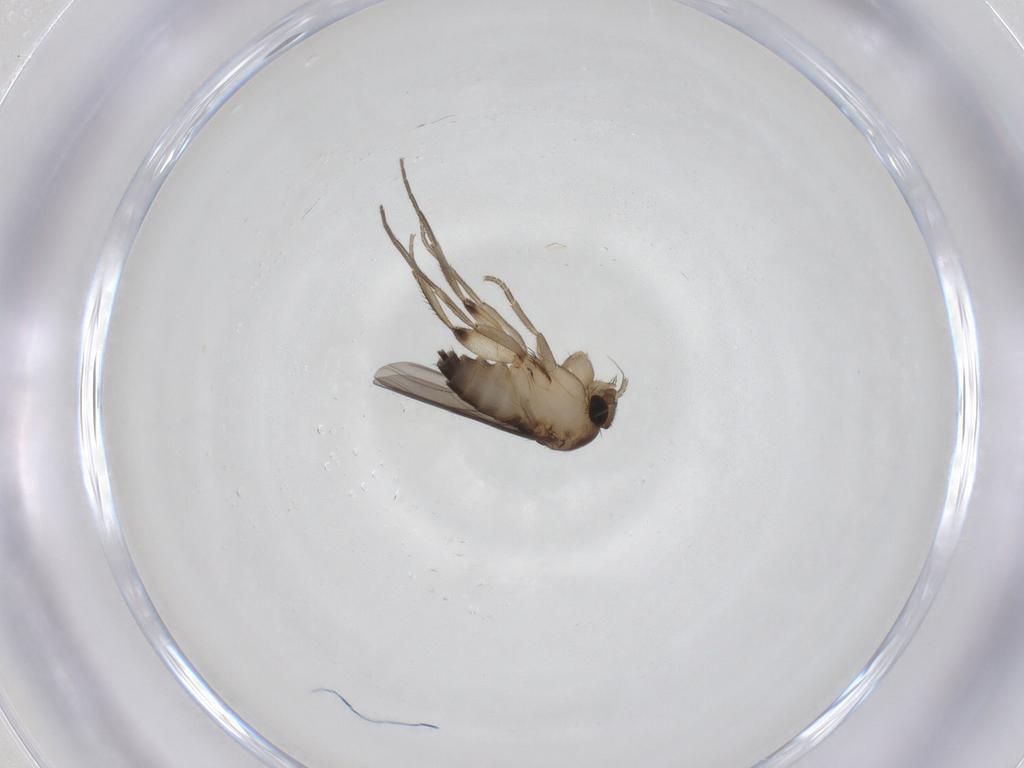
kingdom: Animalia
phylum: Arthropoda
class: Insecta
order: Diptera
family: Phoridae
